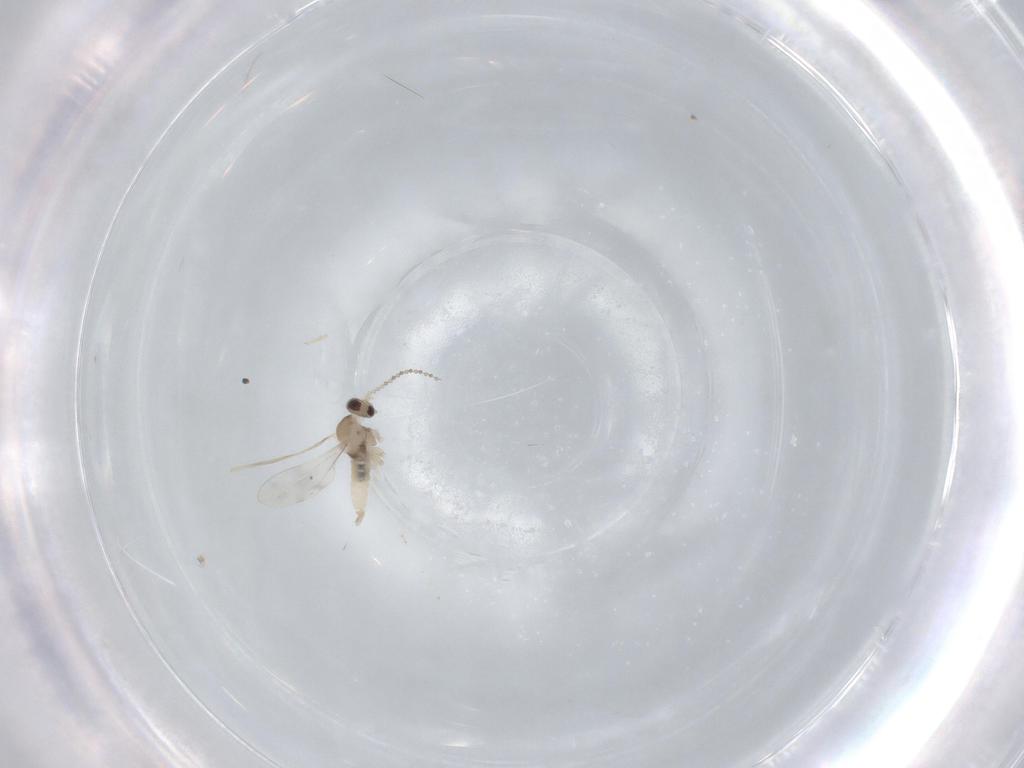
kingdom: Animalia
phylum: Arthropoda
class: Insecta
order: Diptera
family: Cecidomyiidae
